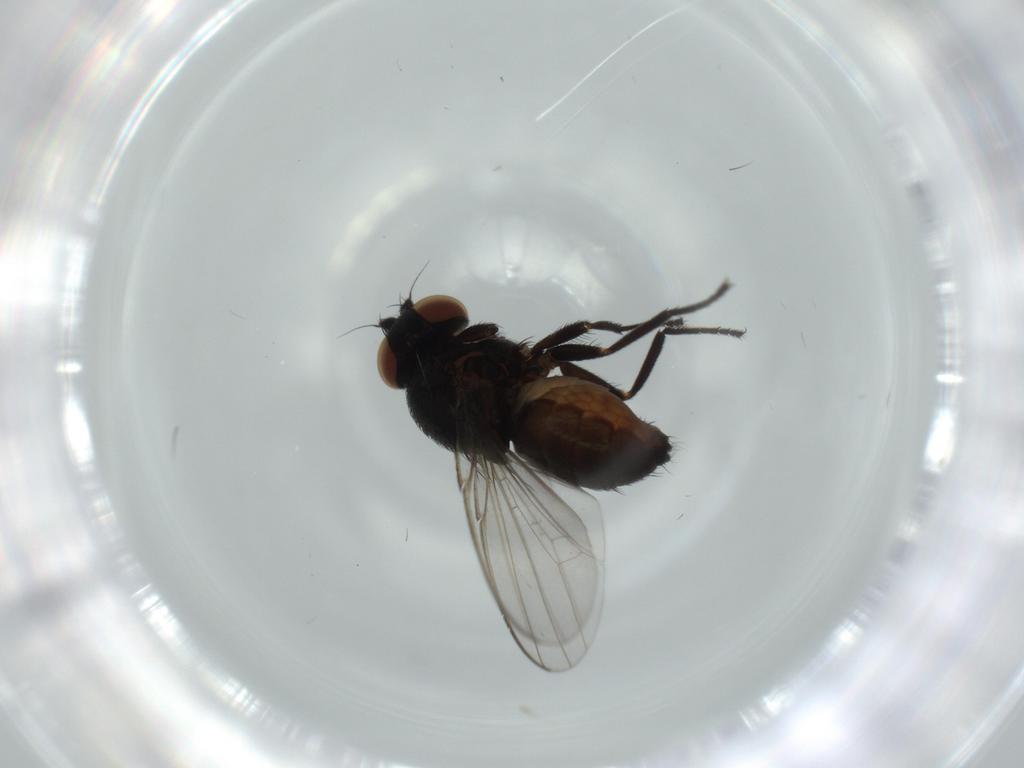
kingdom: Animalia
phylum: Arthropoda
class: Insecta
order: Diptera
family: Milichiidae
